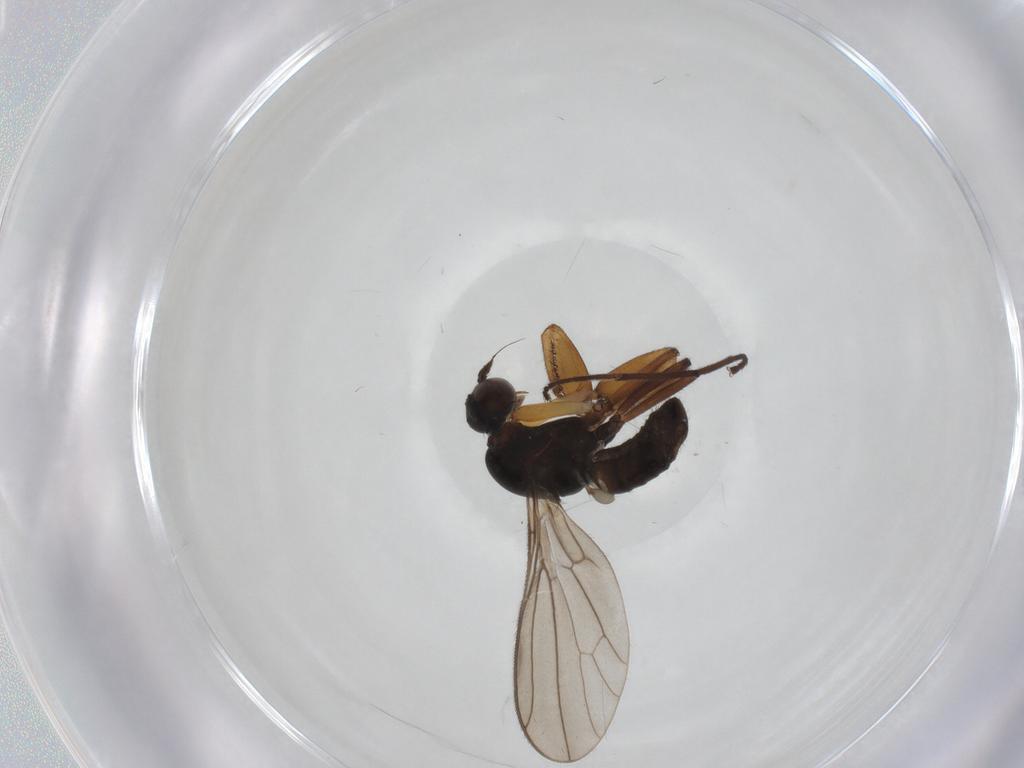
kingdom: Animalia
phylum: Arthropoda
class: Insecta
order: Diptera
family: Empididae
